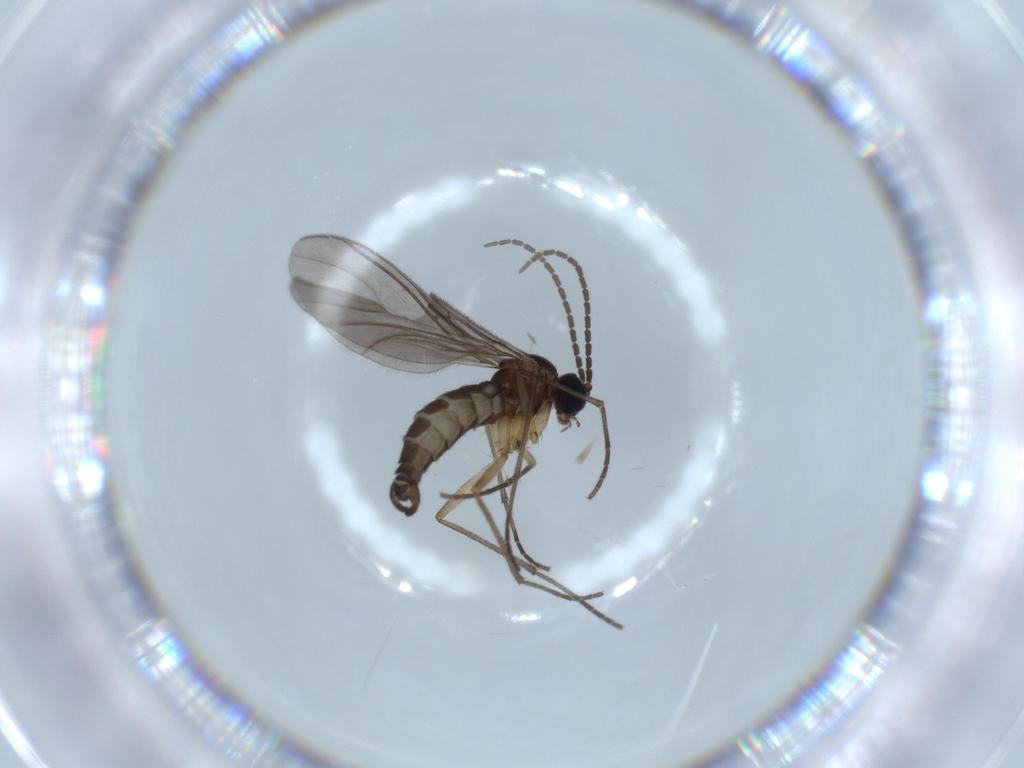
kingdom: Animalia
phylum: Arthropoda
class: Insecta
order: Diptera
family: Sciaridae
